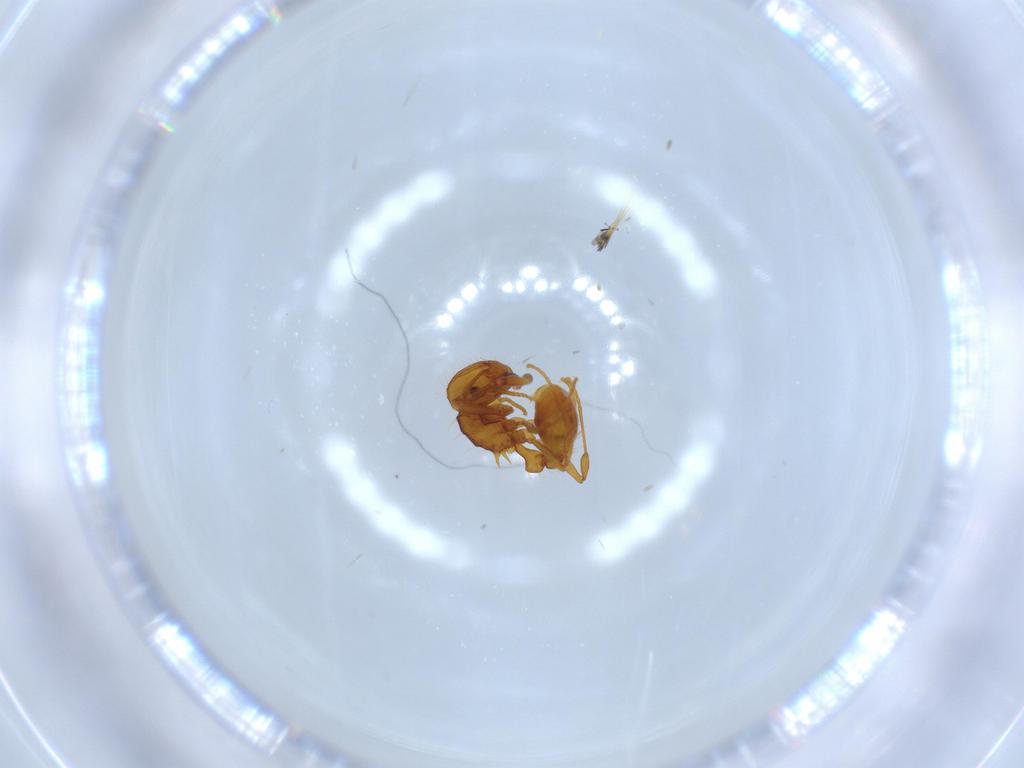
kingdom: Animalia
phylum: Arthropoda
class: Insecta
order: Hymenoptera
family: Formicidae
